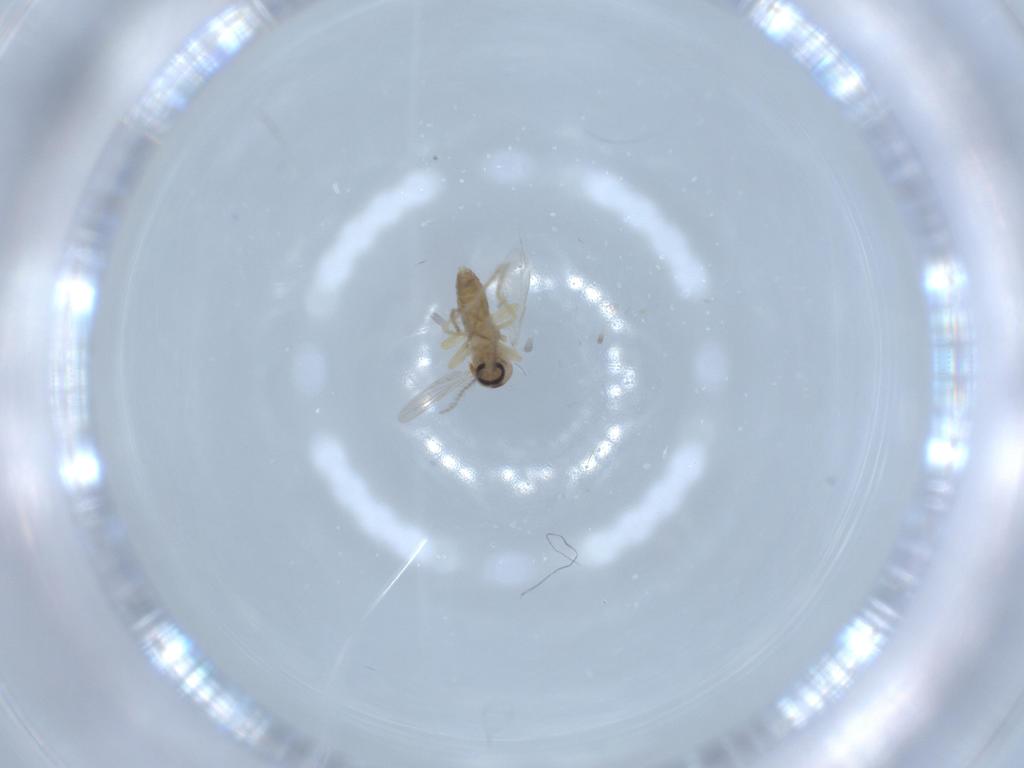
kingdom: Animalia
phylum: Arthropoda
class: Insecta
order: Diptera
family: Ceratopogonidae
